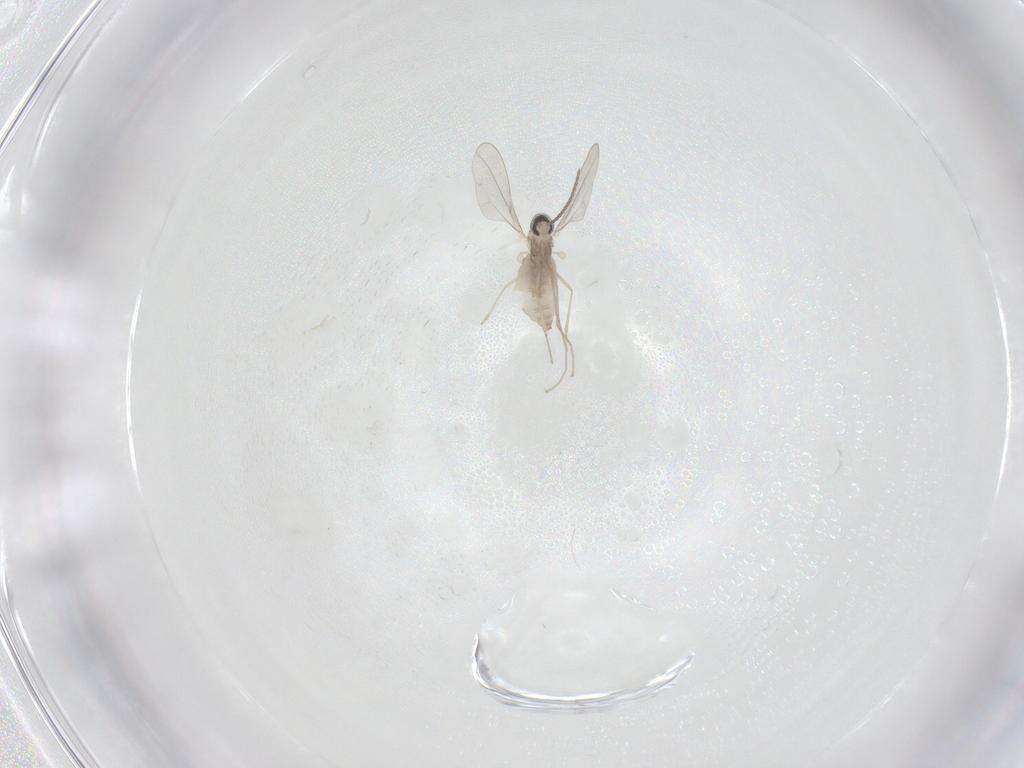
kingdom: Animalia
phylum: Arthropoda
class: Insecta
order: Diptera
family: Cecidomyiidae
